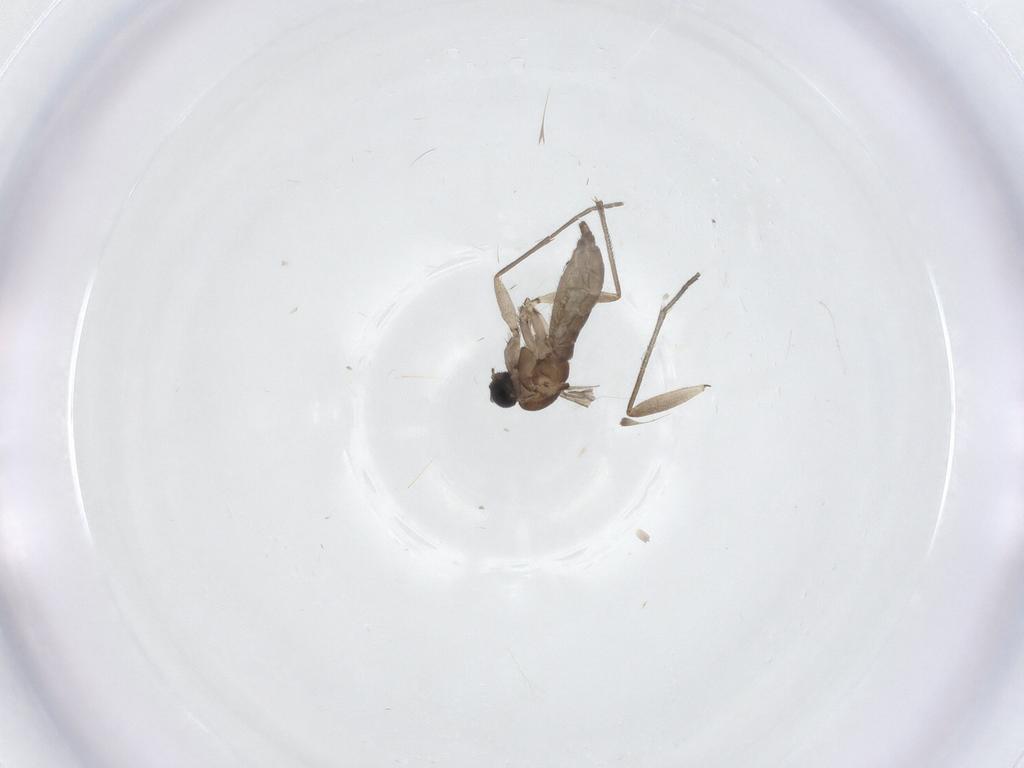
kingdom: Animalia
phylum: Arthropoda
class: Insecta
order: Diptera
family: Sciaridae
